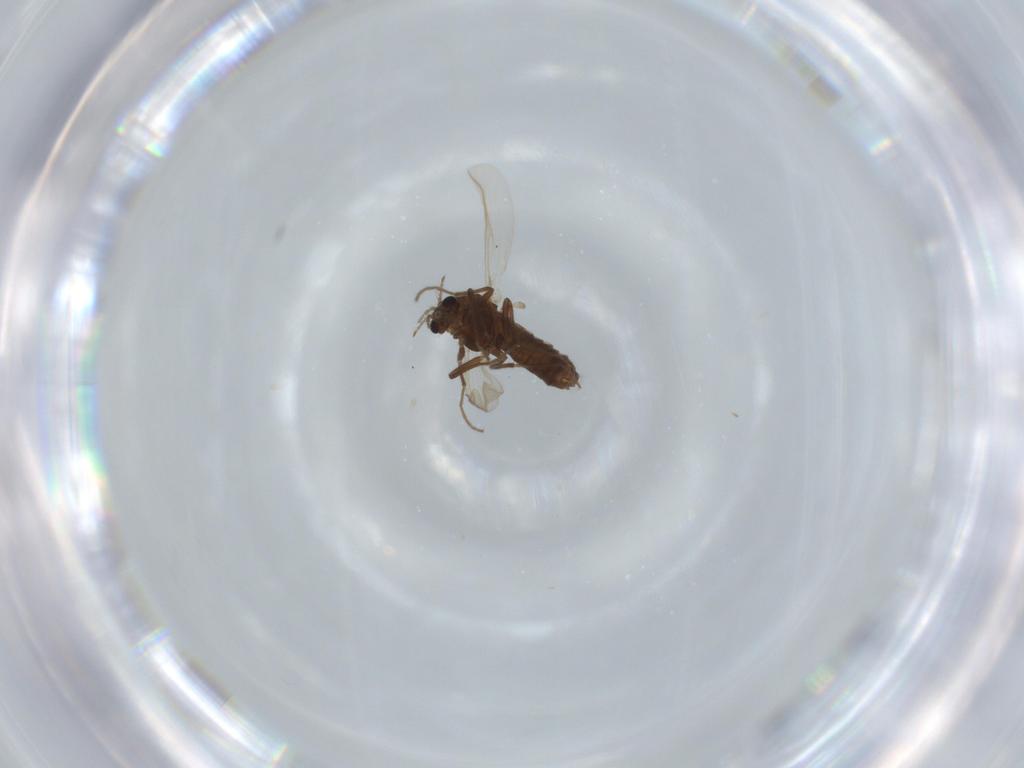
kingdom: Animalia
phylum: Arthropoda
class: Insecta
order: Diptera
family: Chironomidae
